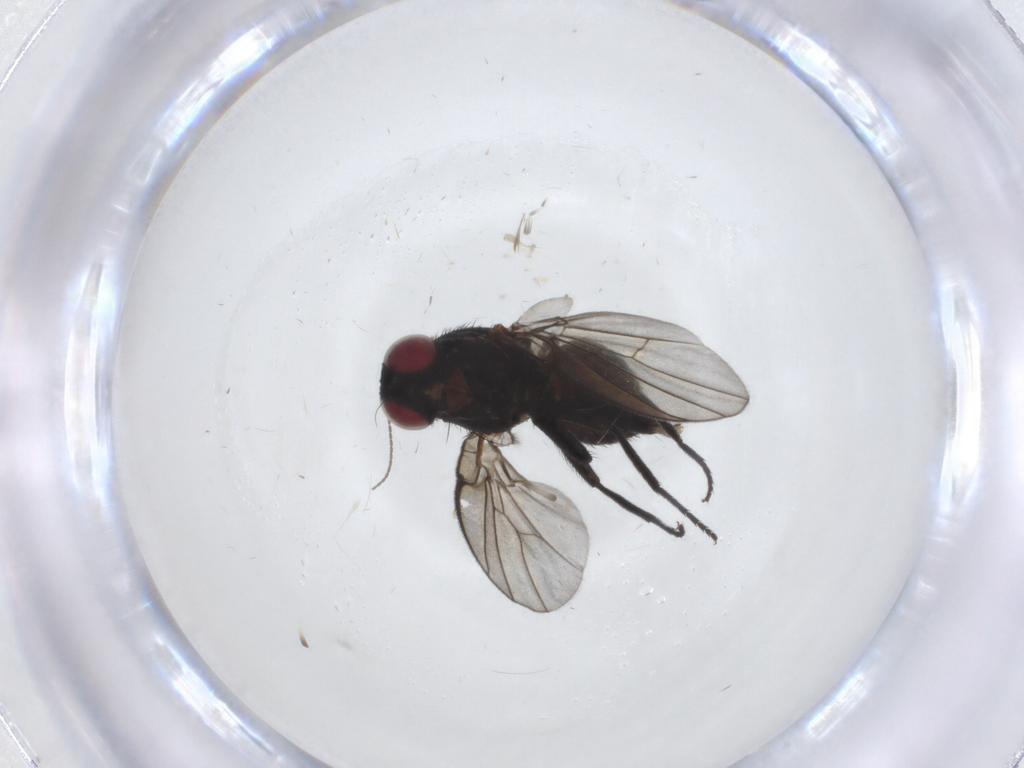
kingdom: Animalia
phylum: Arthropoda
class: Insecta
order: Diptera
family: Agromyzidae
